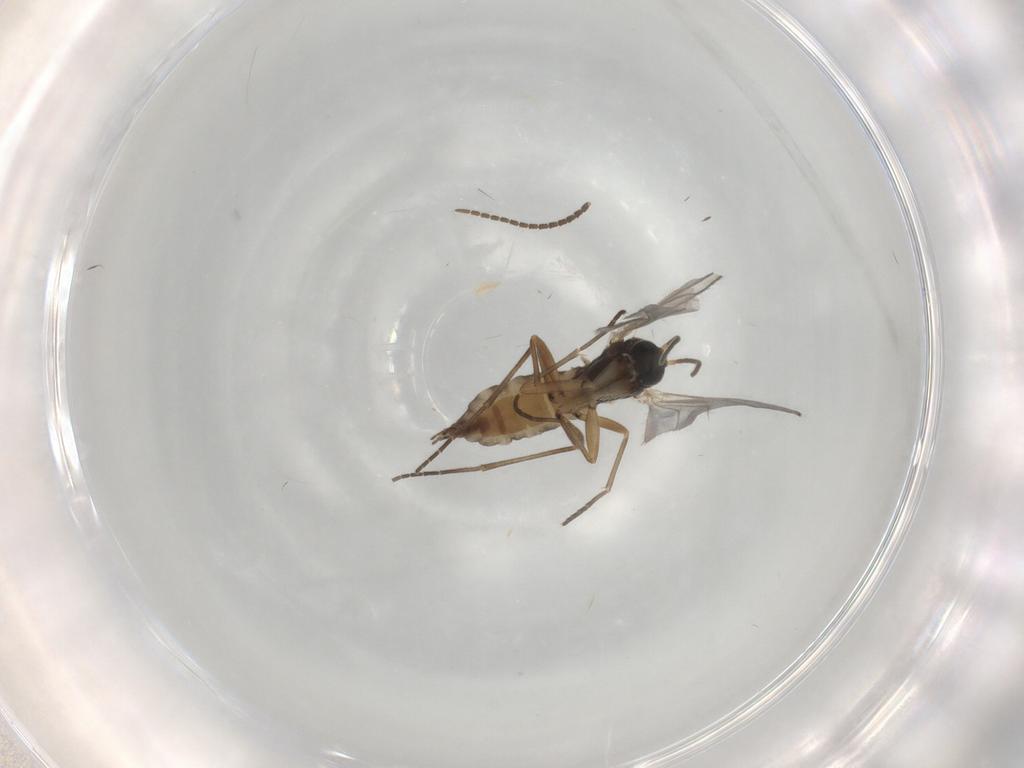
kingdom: Animalia
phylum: Arthropoda
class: Insecta
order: Diptera
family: Sciaridae
